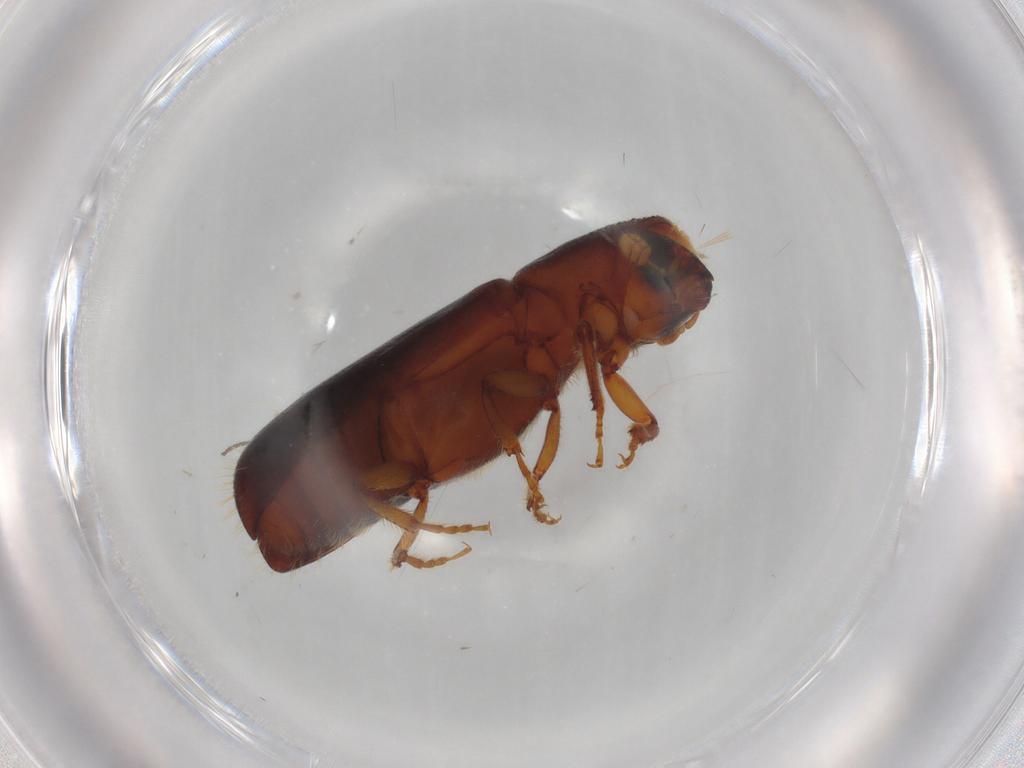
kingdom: Animalia
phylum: Arthropoda
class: Insecta
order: Coleoptera
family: Curculionidae
